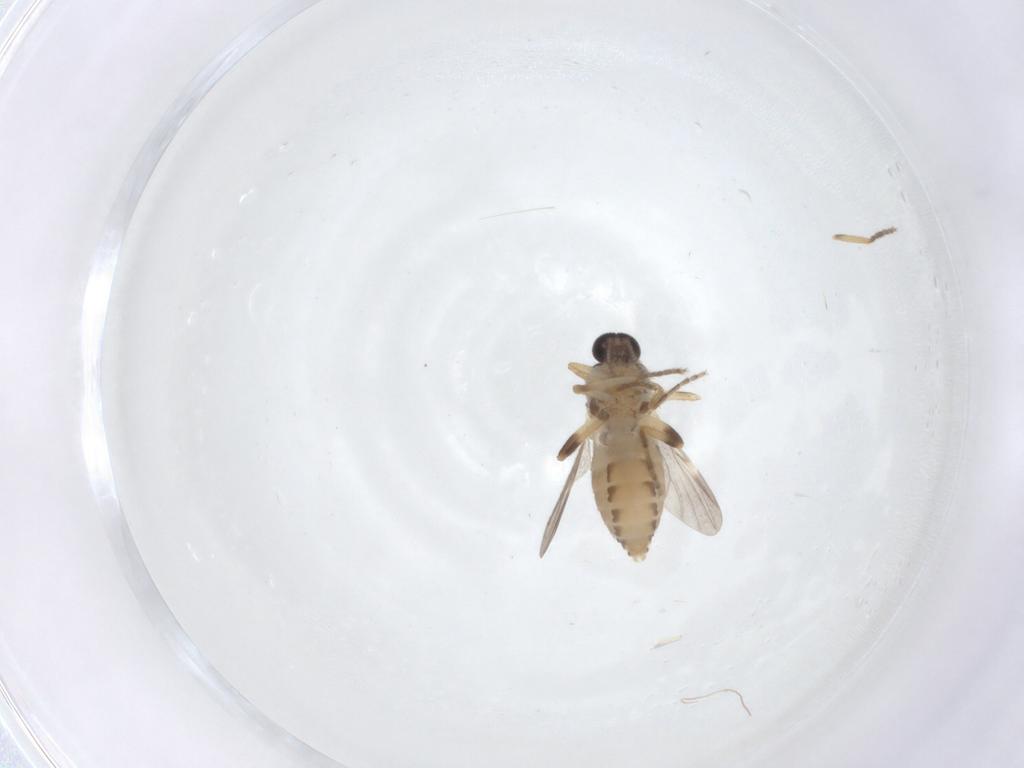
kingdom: Animalia
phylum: Arthropoda
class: Insecta
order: Diptera
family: Ceratopogonidae
